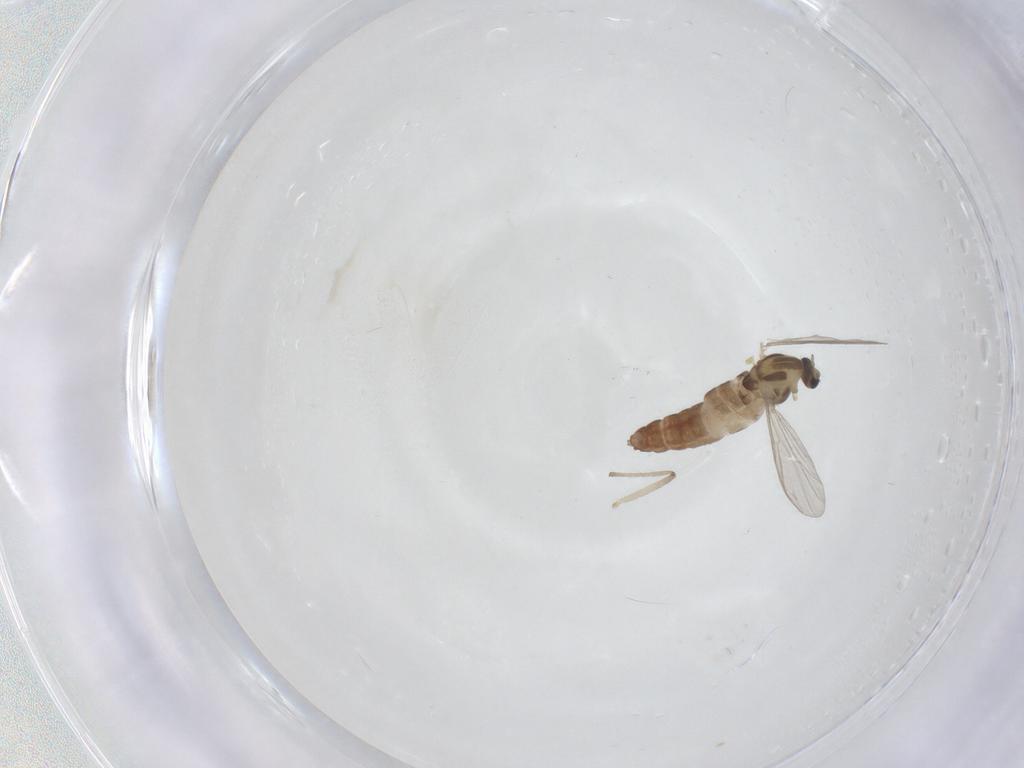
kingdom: Animalia
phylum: Arthropoda
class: Insecta
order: Diptera
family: Chironomidae
